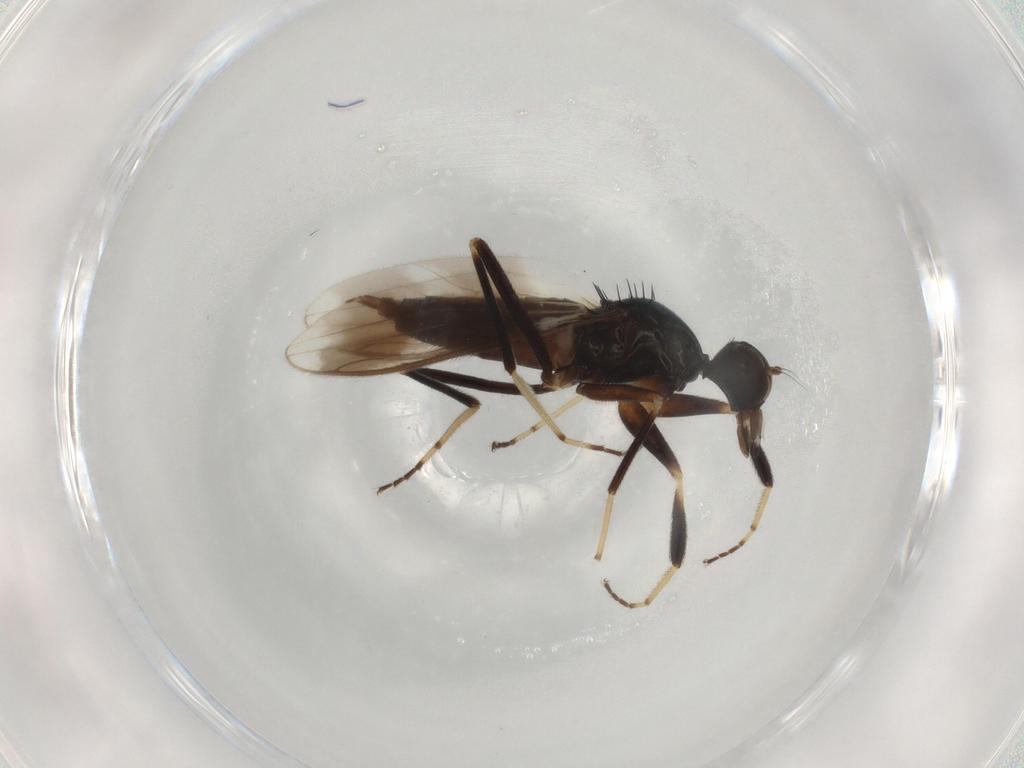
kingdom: Animalia
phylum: Arthropoda
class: Insecta
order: Diptera
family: Hybotidae
